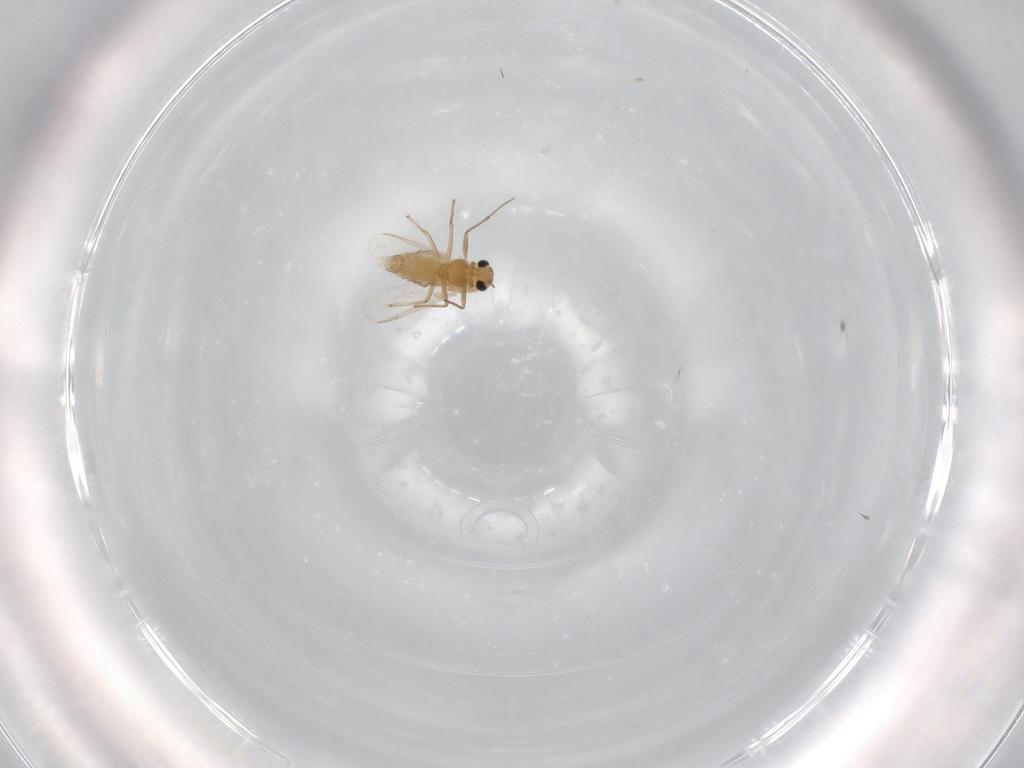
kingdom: Animalia
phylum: Arthropoda
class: Insecta
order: Diptera
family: Chironomidae
